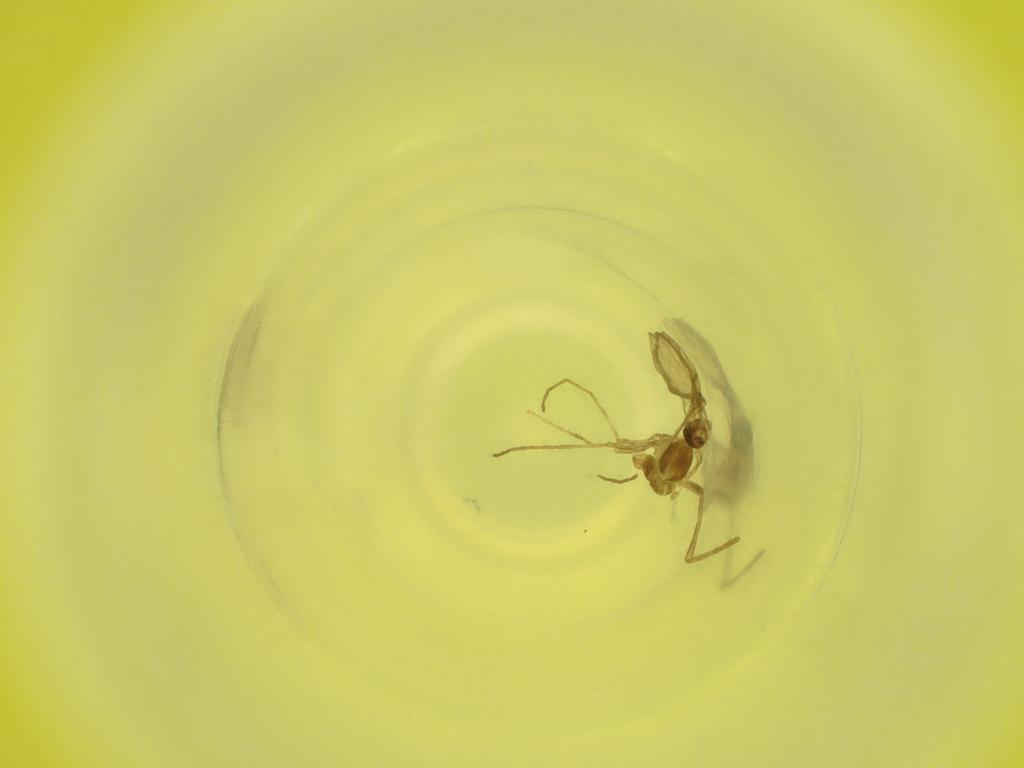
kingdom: Animalia
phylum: Arthropoda
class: Insecta
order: Diptera
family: Cecidomyiidae
